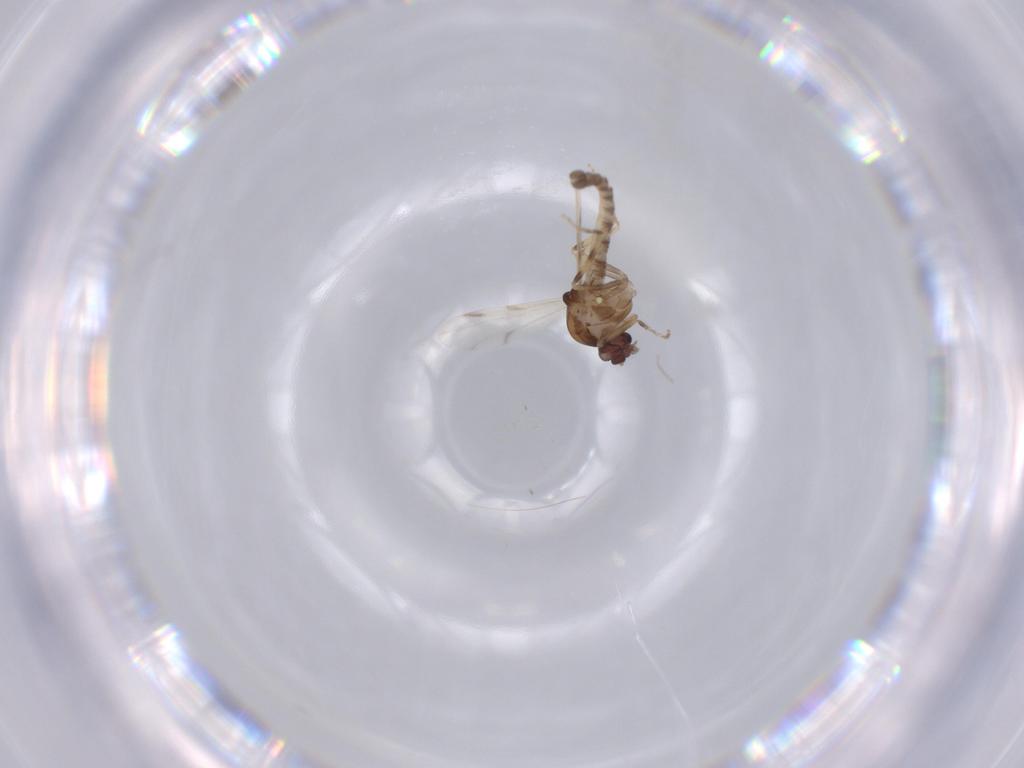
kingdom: Animalia
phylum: Arthropoda
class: Insecta
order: Diptera
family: Ceratopogonidae
